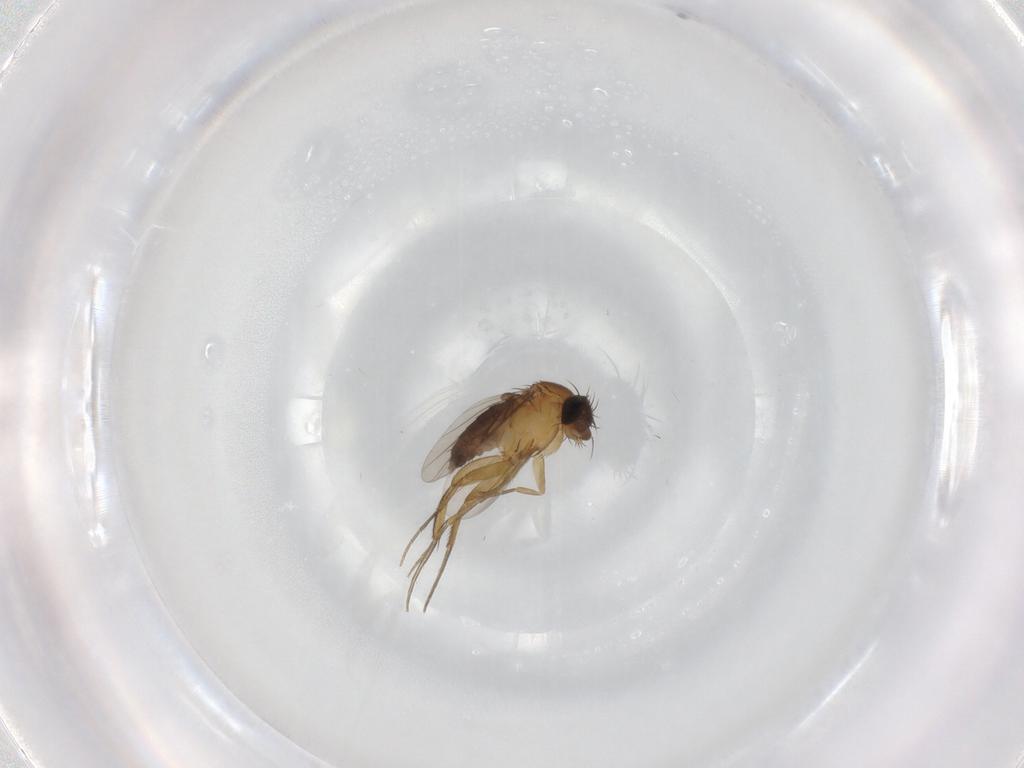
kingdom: Animalia
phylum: Arthropoda
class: Insecta
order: Diptera
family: Phoridae
